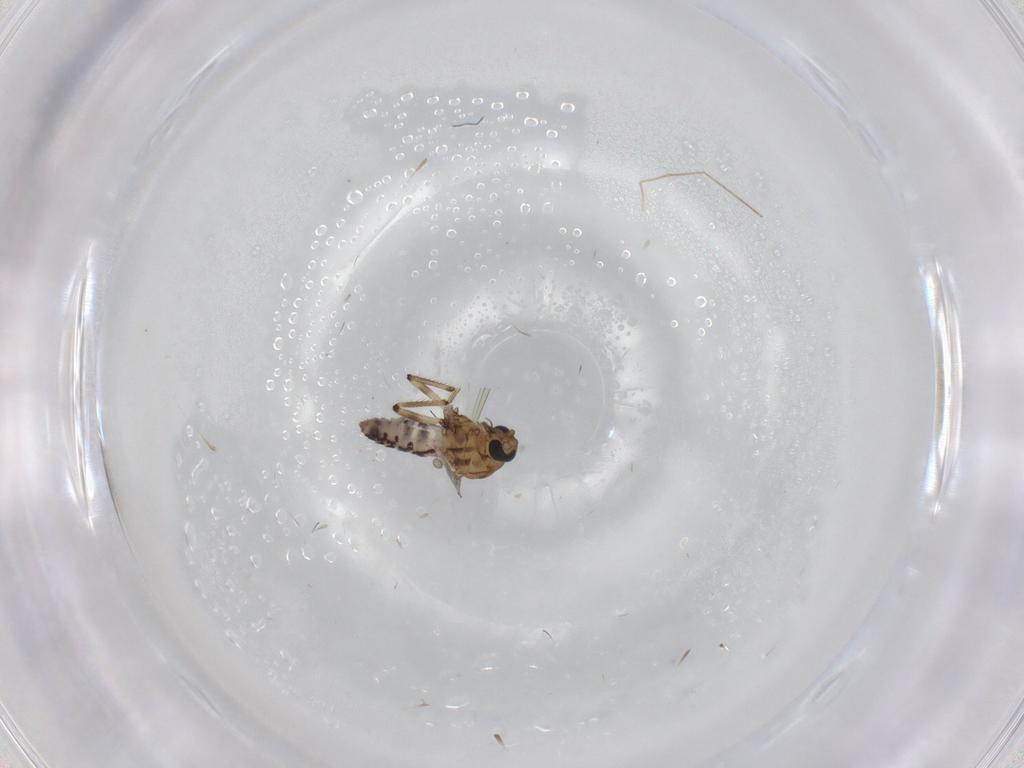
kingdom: Animalia
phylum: Arthropoda
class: Insecta
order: Diptera
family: Ceratopogonidae
